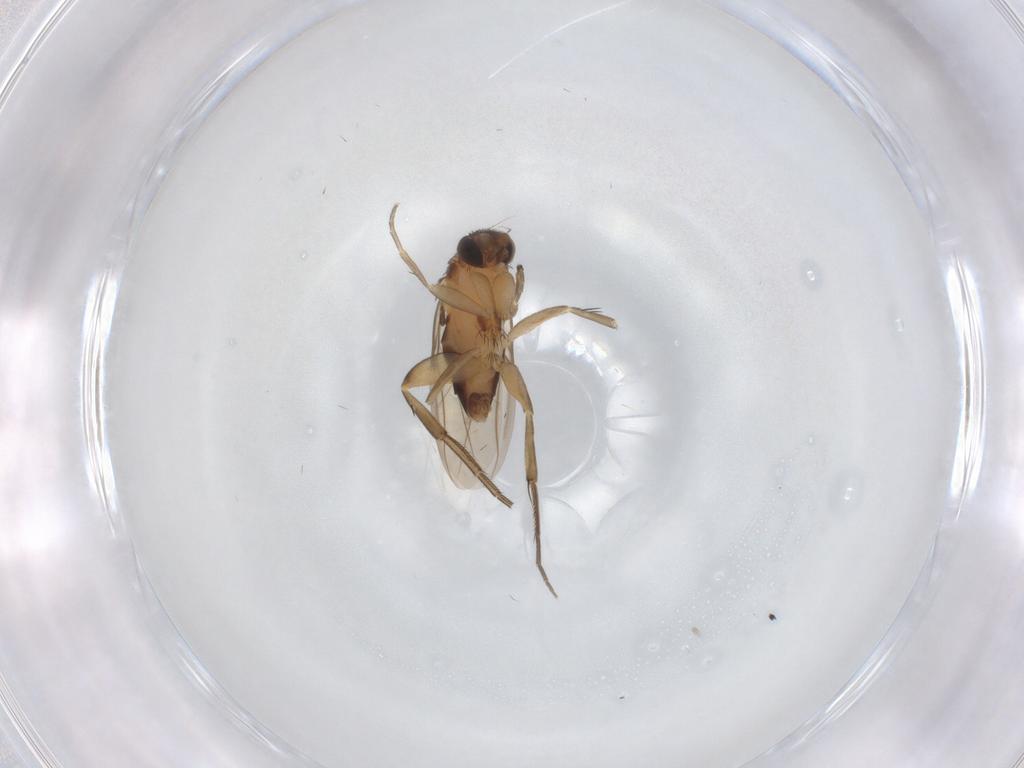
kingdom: Animalia
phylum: Arthropoda
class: Insecta
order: Diptera
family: Phoridae
